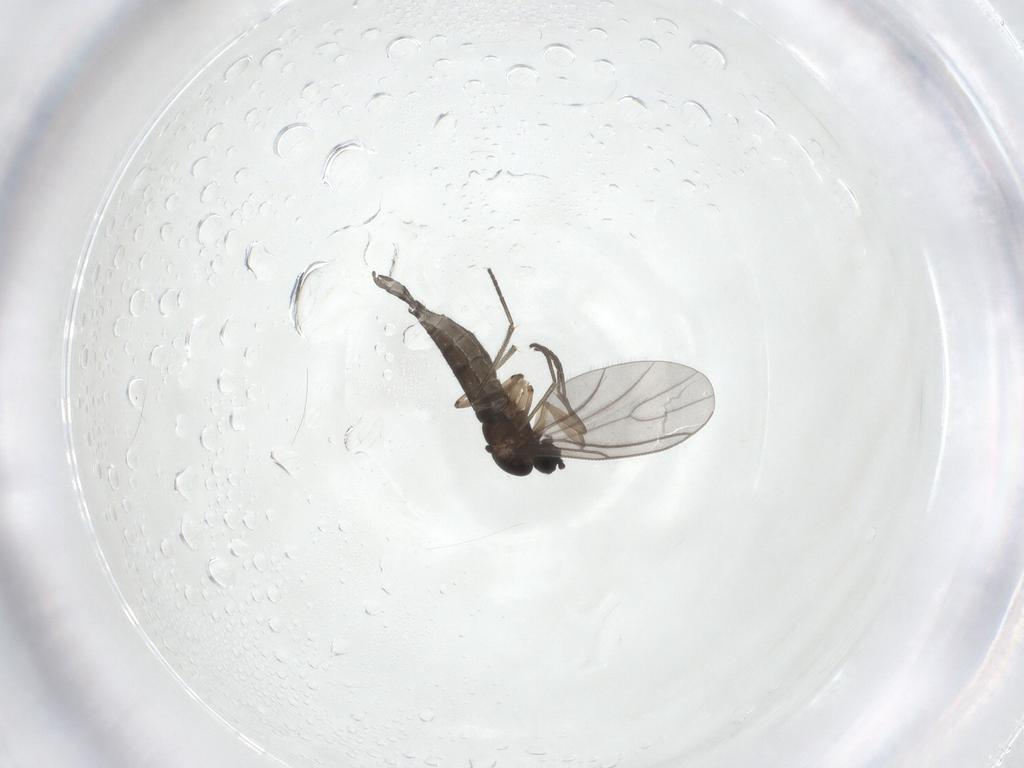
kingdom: Animalia
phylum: Arthropoda
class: Insecta
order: Diptera
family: Sciaridae
